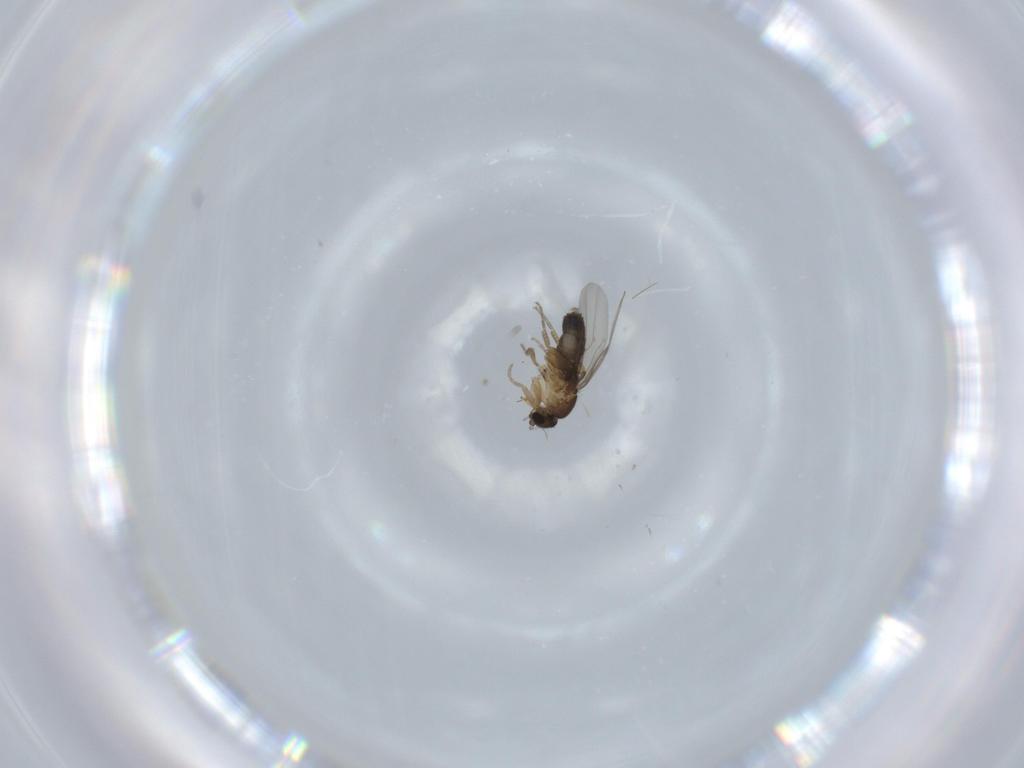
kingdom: Animalia
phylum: Arthropoda
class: Insecta
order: Diptera
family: Phoridae
